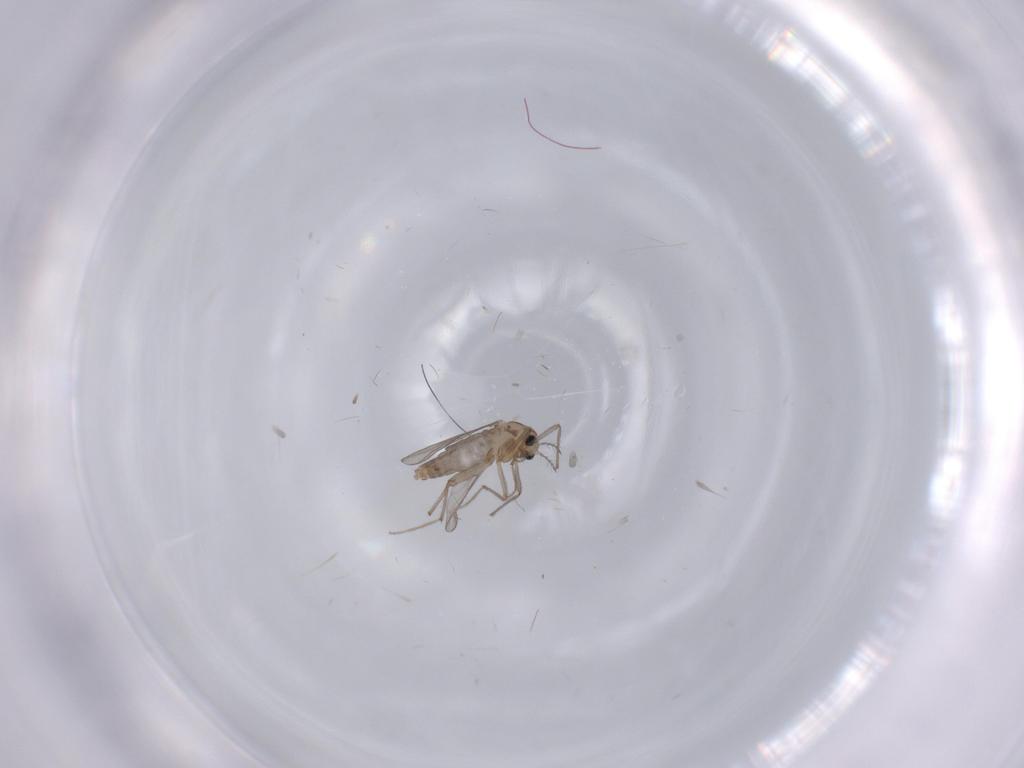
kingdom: Animalia
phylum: Arthropoda
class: Insecta
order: Diptera
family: Chironomidae
